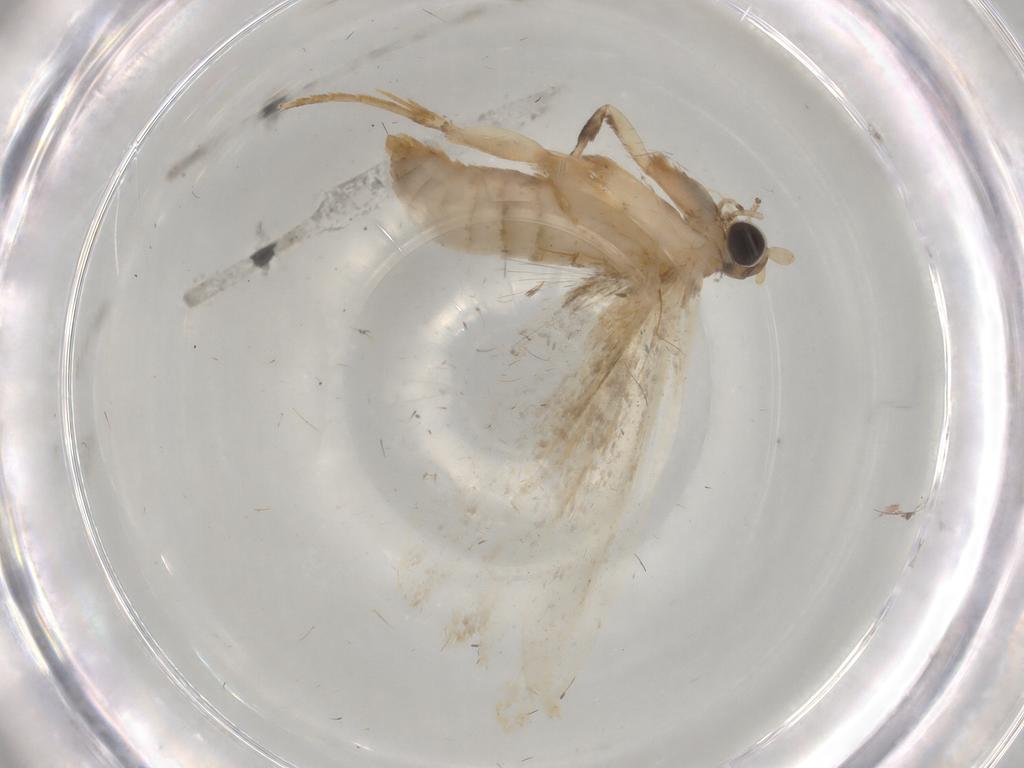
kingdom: Animalia
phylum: Arthropoda
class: Insecta
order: Lepidoptera
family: Tineidae
